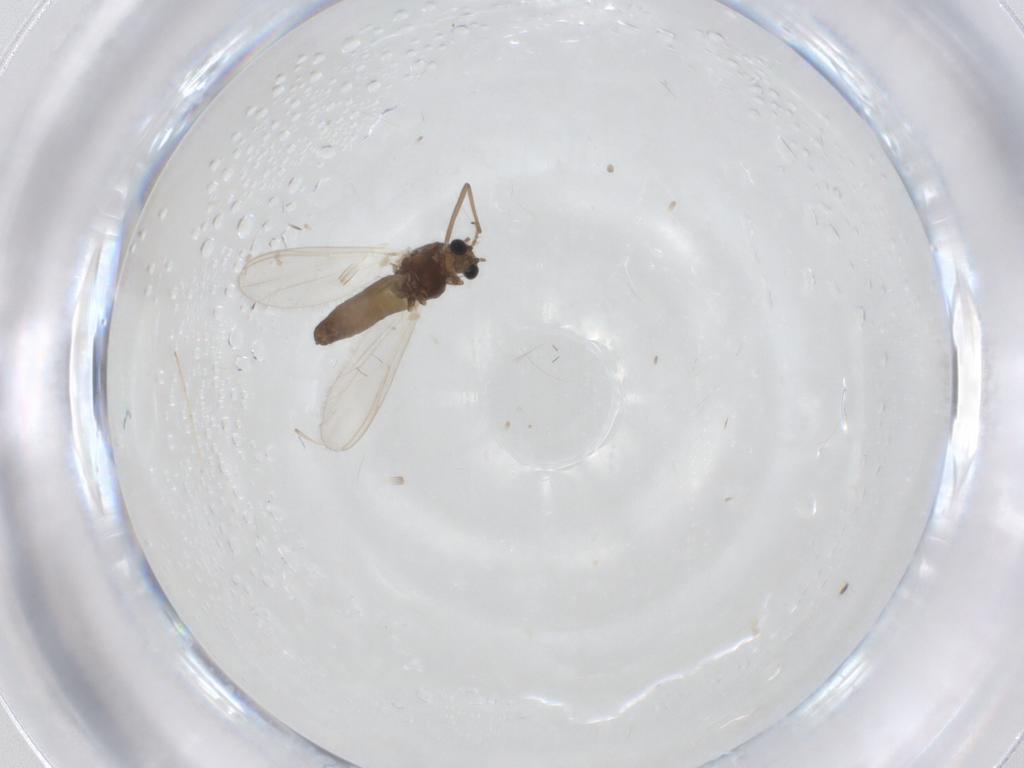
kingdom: Animalia
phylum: Arthropoda
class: Insecta
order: Diptera
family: Chironomidae
